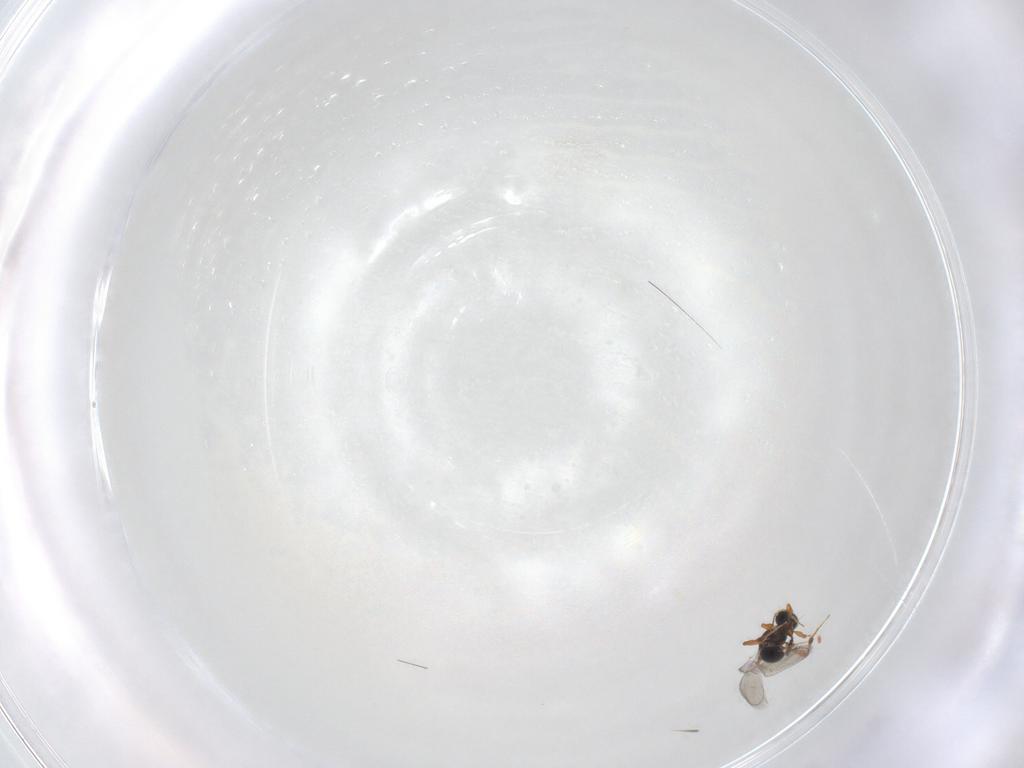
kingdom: Animalia
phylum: Arthropoda
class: Insecta
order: Hymenoptera
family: Platygastridae
